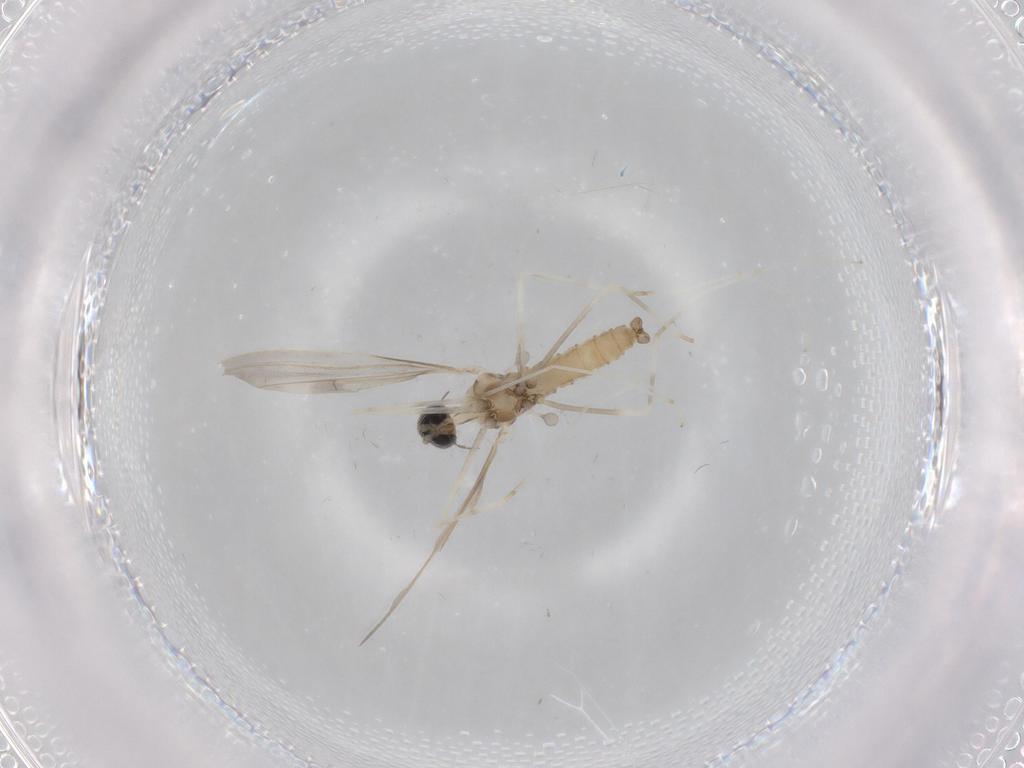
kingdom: Animalia
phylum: Arthropoda
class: Insecta
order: Diptera
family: Cecidomyiidae
